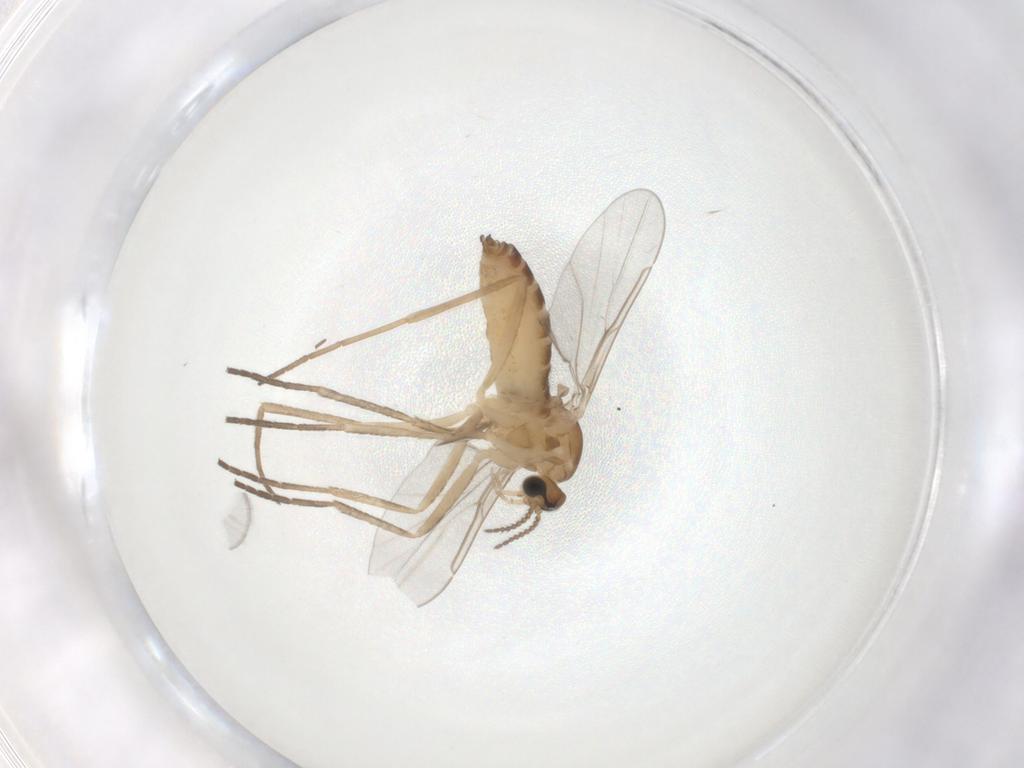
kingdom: Animalia
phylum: Arthropoda
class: Insecta
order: Diptera
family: Cecidomyiidae
